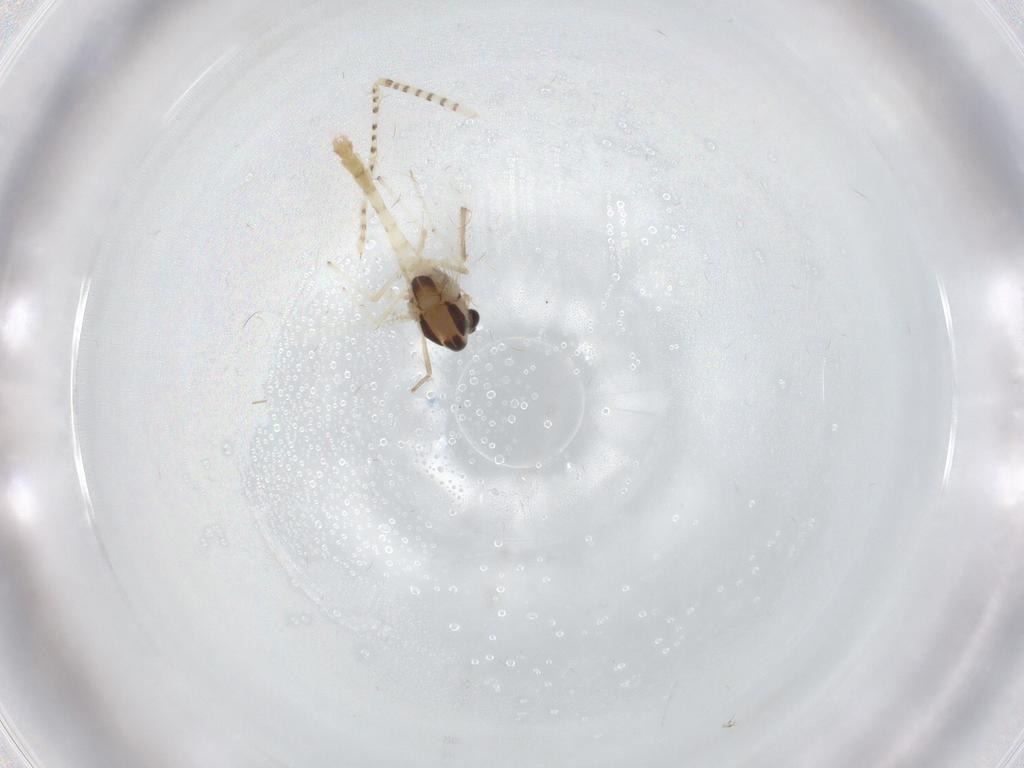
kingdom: Animalia
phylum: Arthropoda
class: Insecta
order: Diptera
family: Chironomidae
